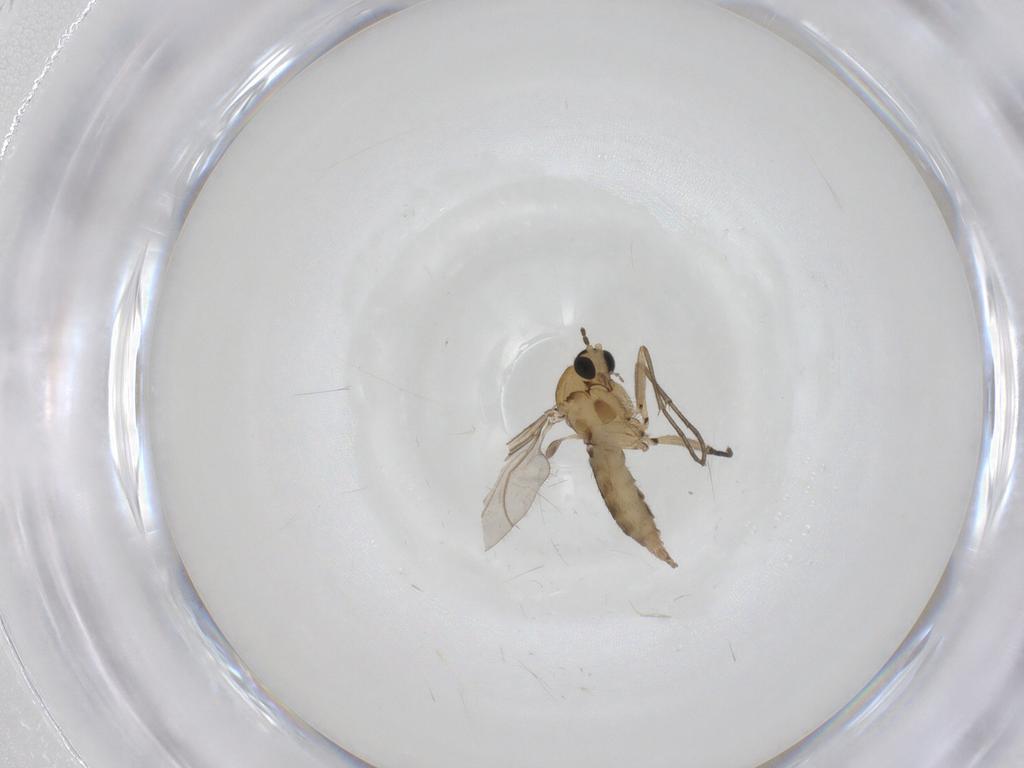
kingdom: Animalia
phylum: Arthropoda
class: Insecta
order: Diptera
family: Sciaridae
